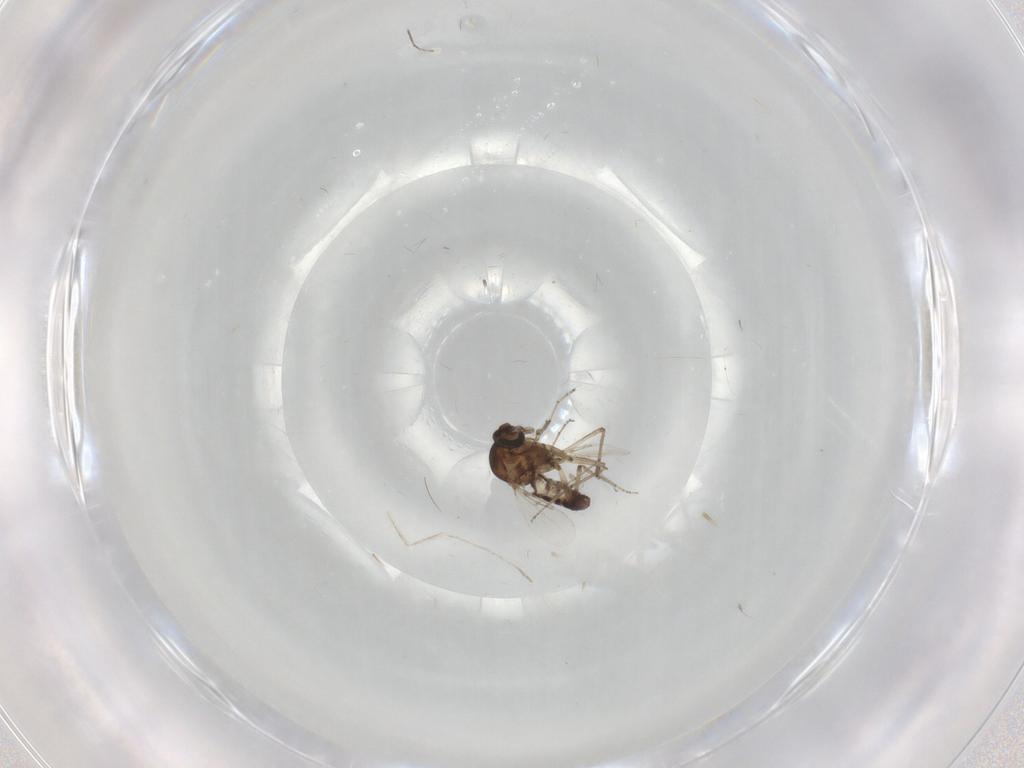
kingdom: Animalia
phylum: Arthropoda
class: Insecta
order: Diptera
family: Ceratopogonidae
